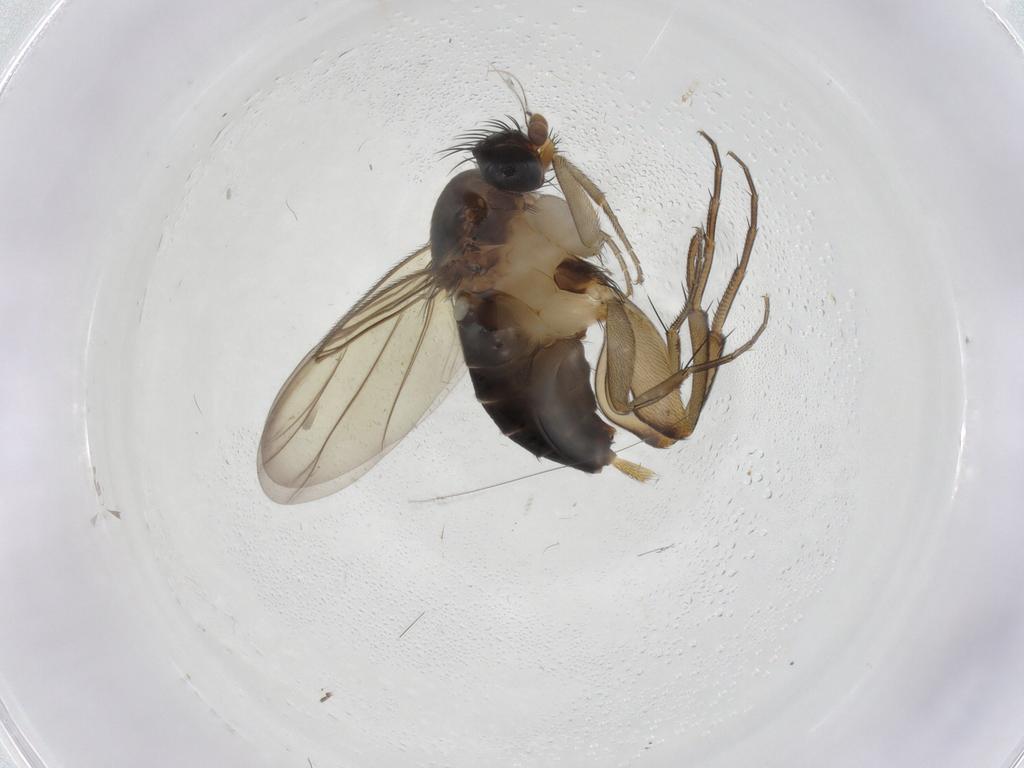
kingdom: Animalia
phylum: Arthropoda
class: Insecta
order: Diptera
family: Phoridae
